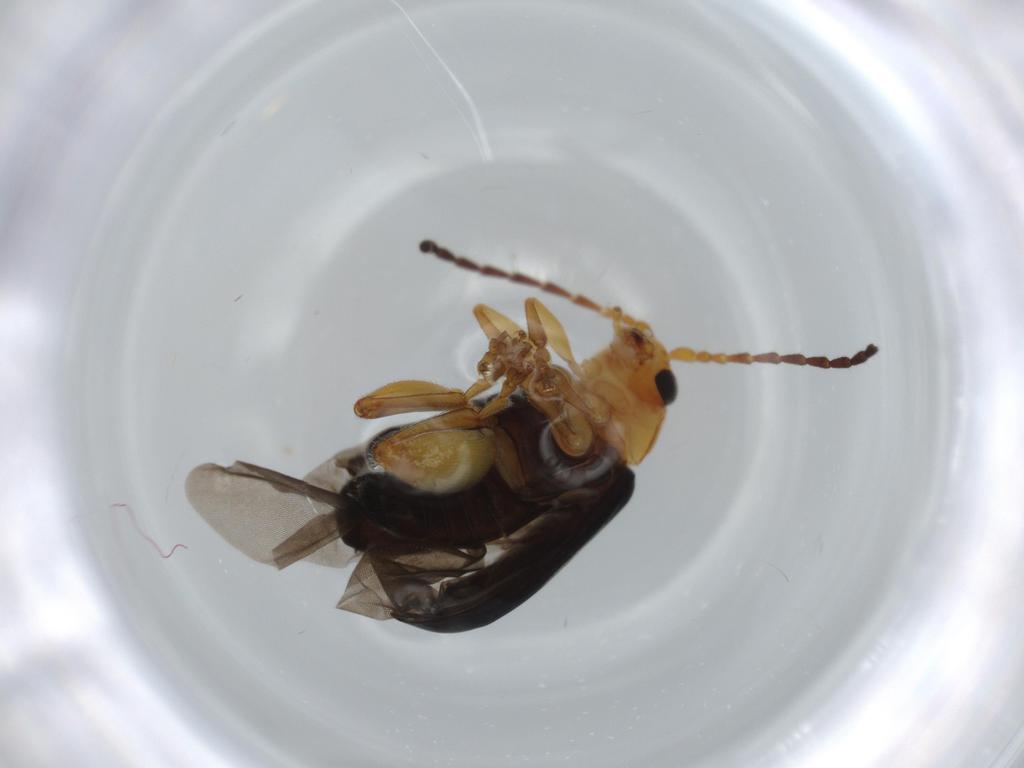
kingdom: Animalia
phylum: Arthropoda
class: Insecta
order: Coleoptera
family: Chrysomelidae
